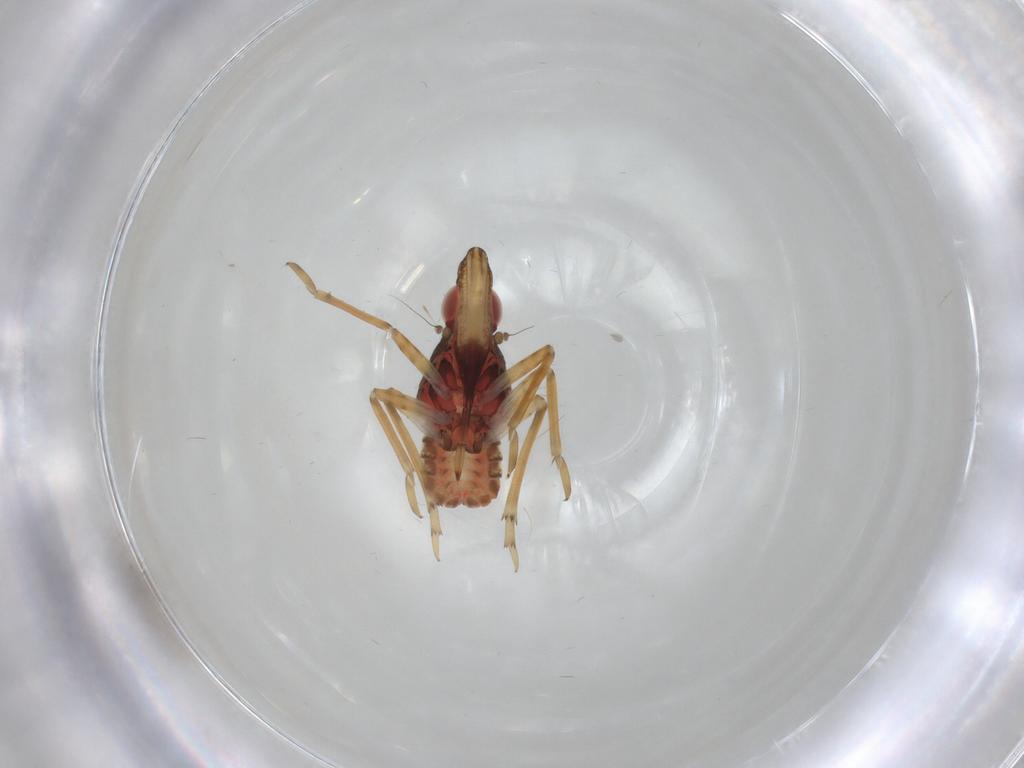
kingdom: Animalia
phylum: Arthropoda
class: Insecta
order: Hemiptera
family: Dictyopharidae
